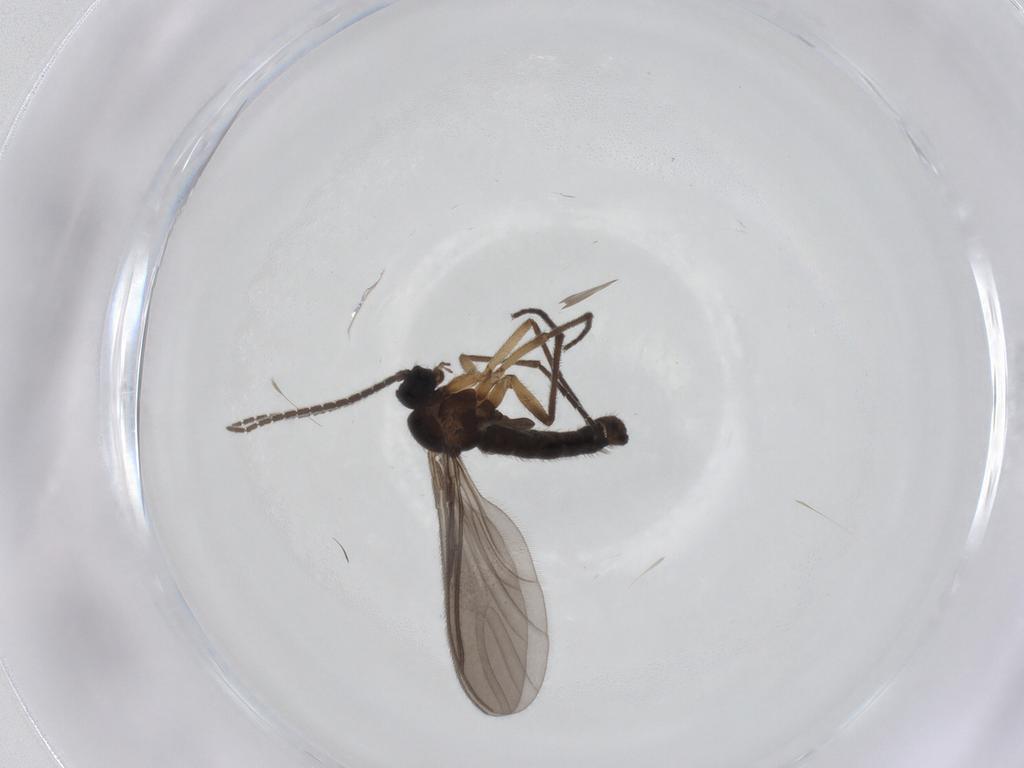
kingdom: Animalia
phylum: Arthropoda
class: Insecta
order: Diptera
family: Sciaridae
